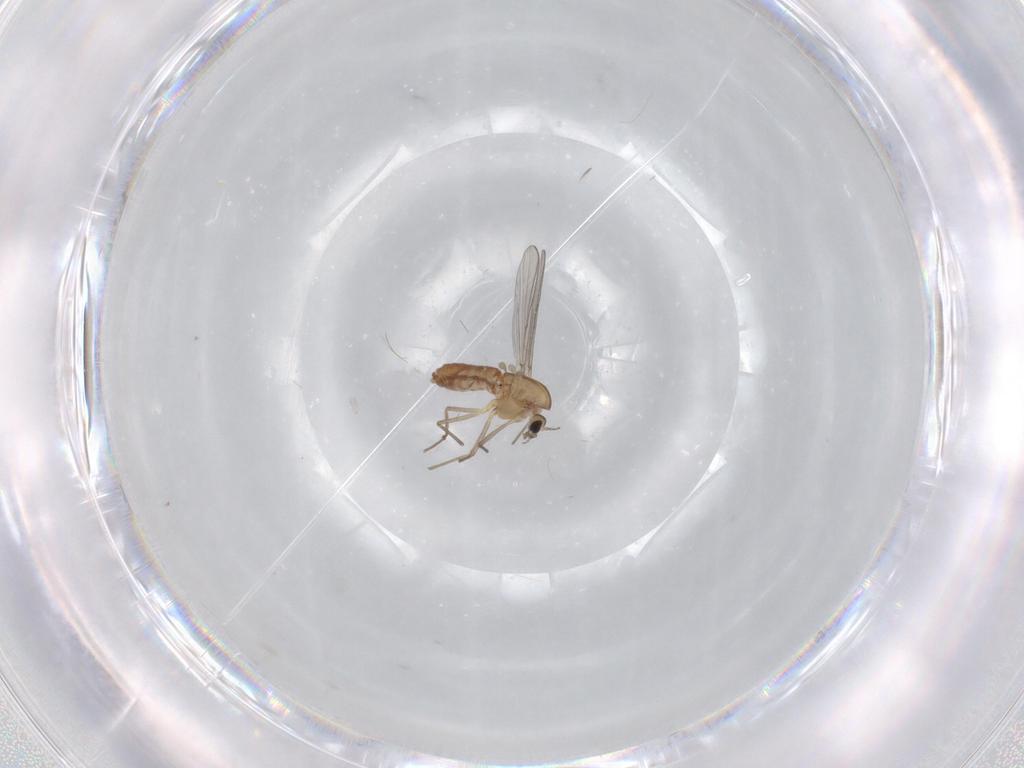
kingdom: Animalia
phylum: Arthropoda
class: Insecta
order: Diptera
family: Chironomidae
